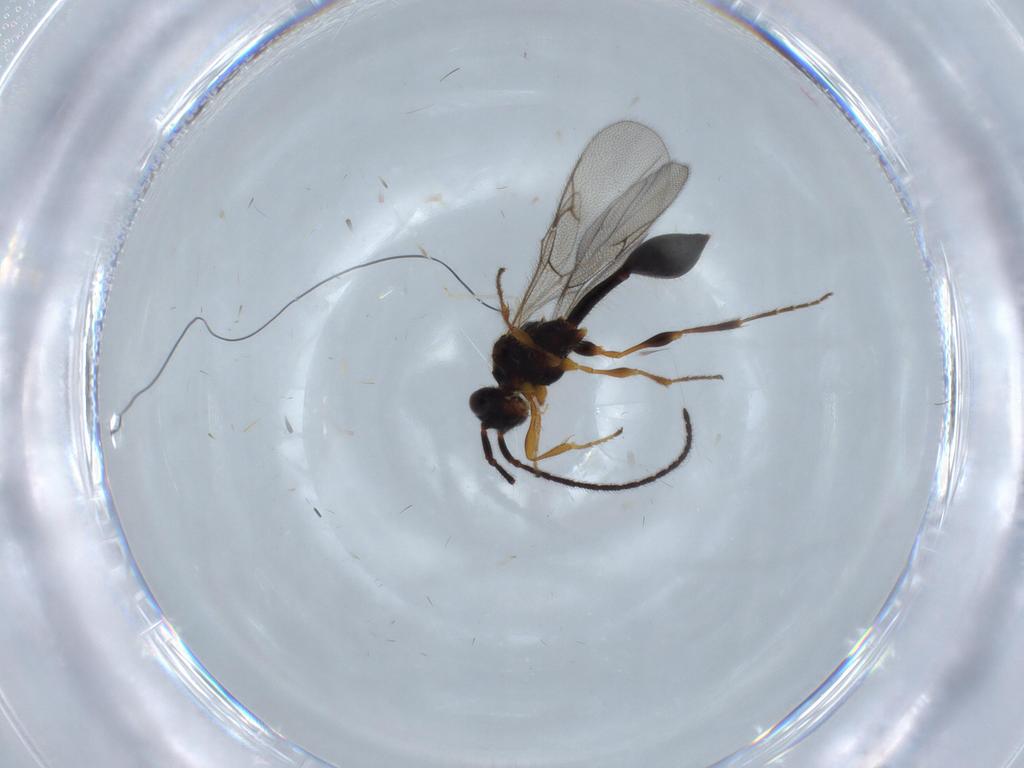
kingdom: Animalia
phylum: Arthropoda
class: Insecta
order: Hymenoptera
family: Diapriidae
